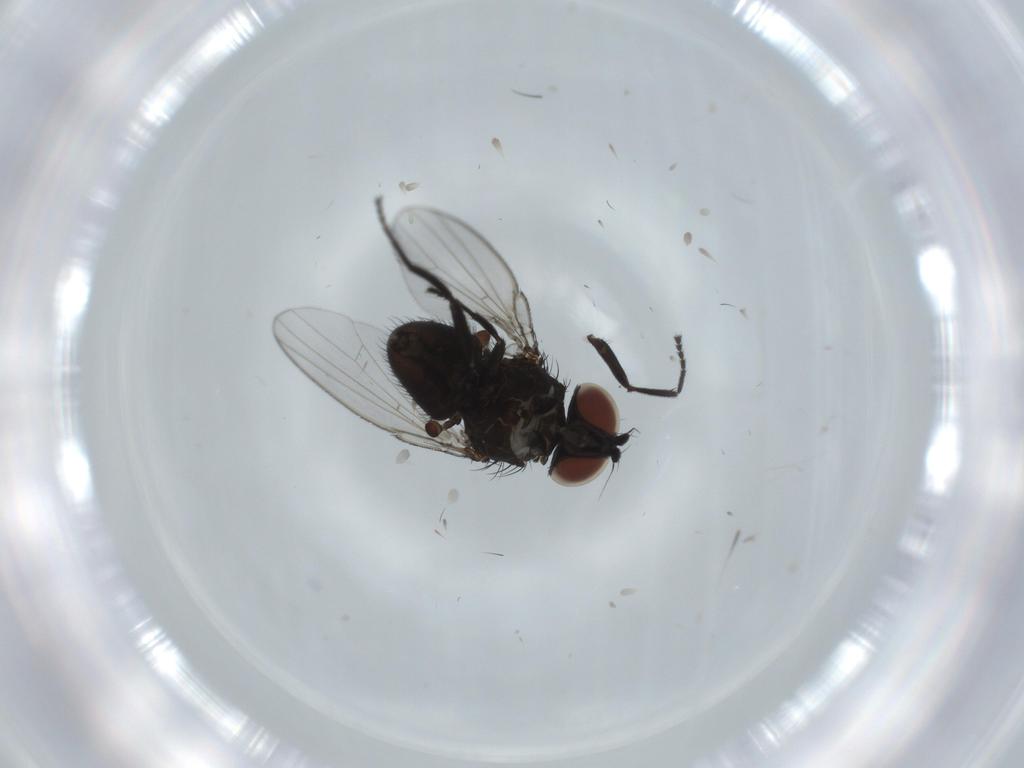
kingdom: Animalia
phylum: Arthropoda
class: Insecta
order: Diptera
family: Milichiidae
